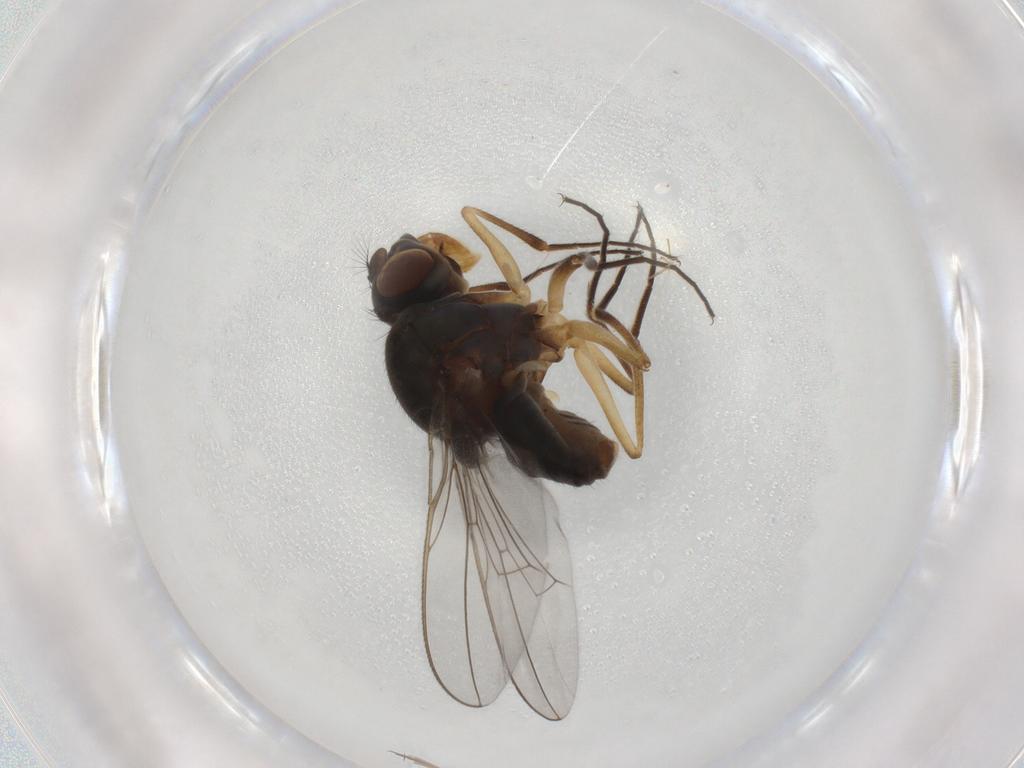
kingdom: Animalia
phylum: Arthropoda
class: Insecta
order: Diptera
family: Ephydridae
